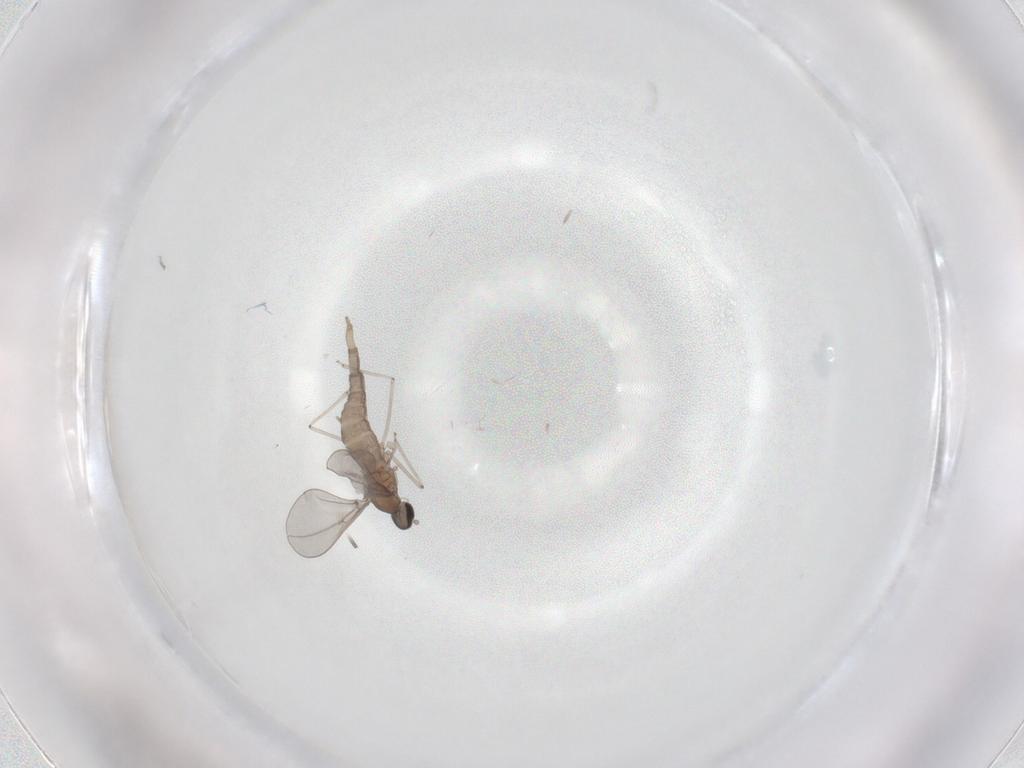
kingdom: Animalia
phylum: Arthropoda
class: Insecta
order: Diptera
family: Cecidomyiidae
